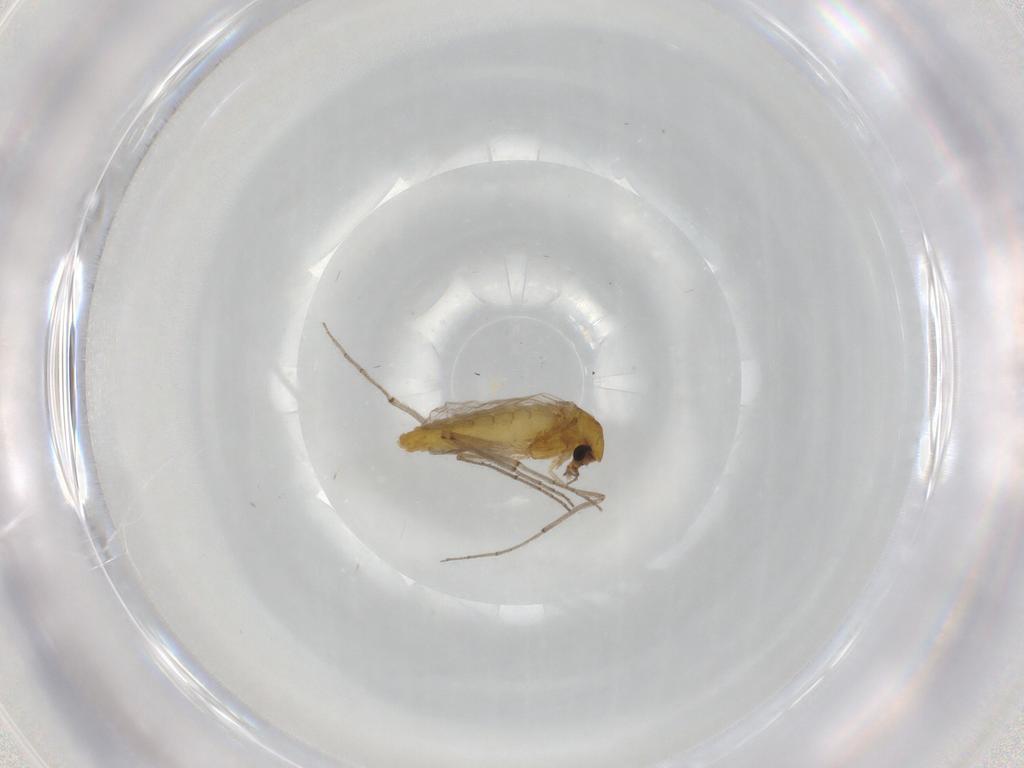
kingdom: Animalia
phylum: Arthropoda
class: Insecta
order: Diptera
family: Chironomidae
